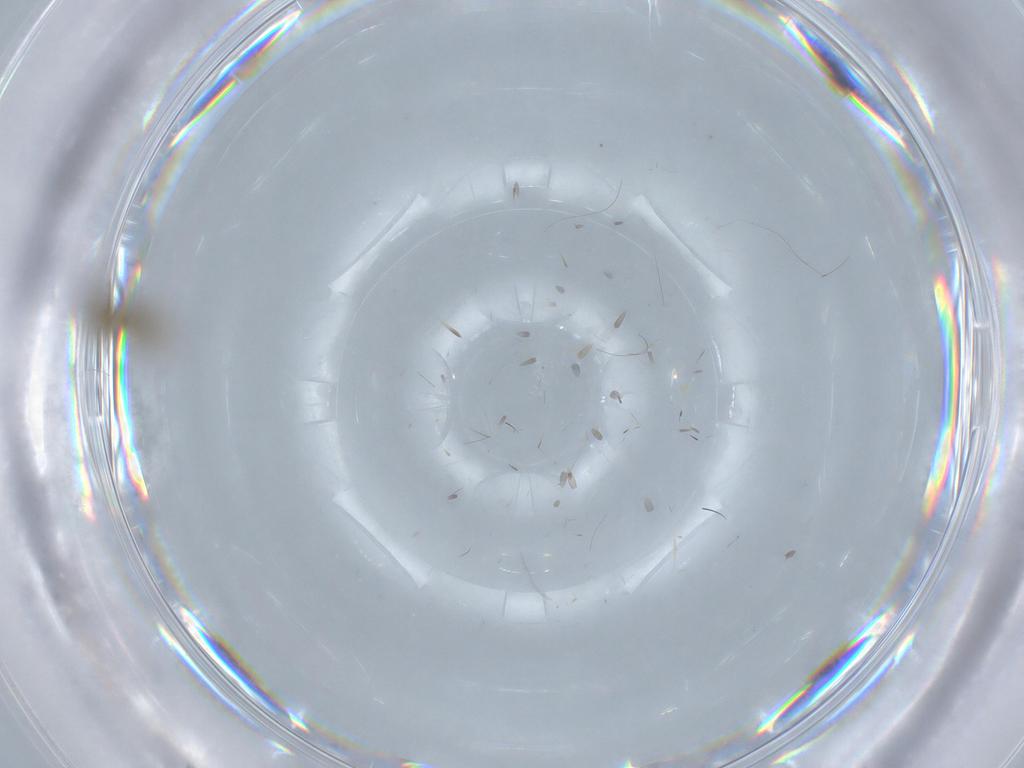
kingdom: Animalia
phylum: Arthropoda
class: Insecta
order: Diptera
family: Chironomidae
